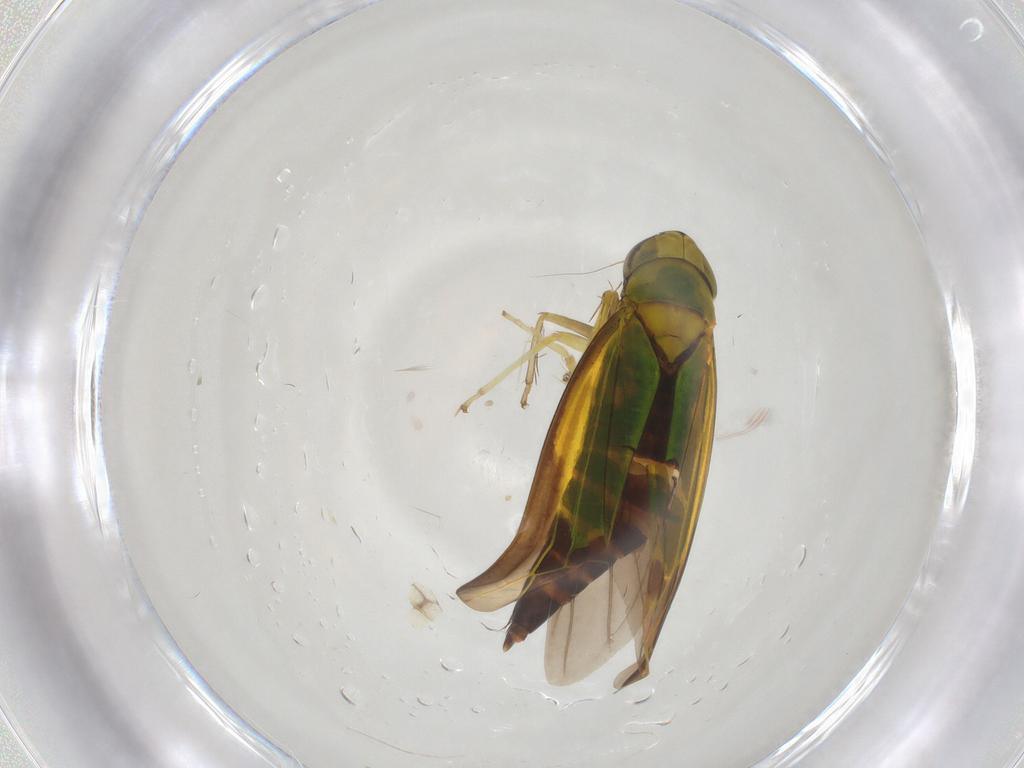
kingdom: Animalia
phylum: Arthropoda
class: Insecta
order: Hemiptera
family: Cicadellidae
